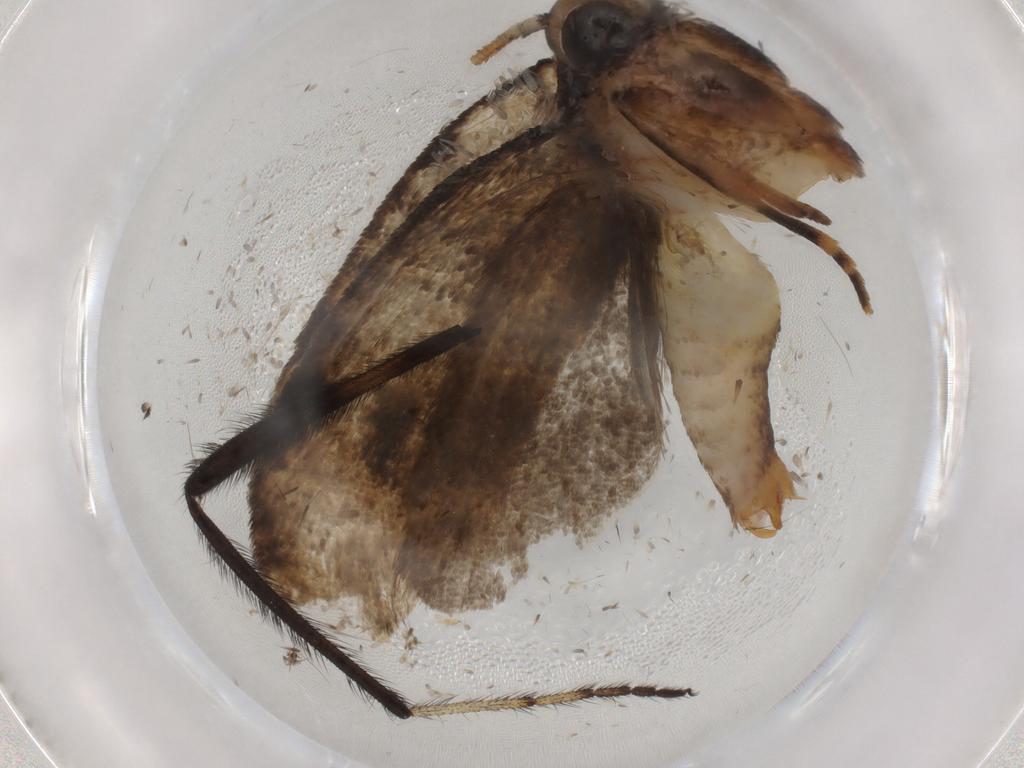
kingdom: Animalia
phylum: Arthropoda
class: Insecta
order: Lepidoptera
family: Tineidae
